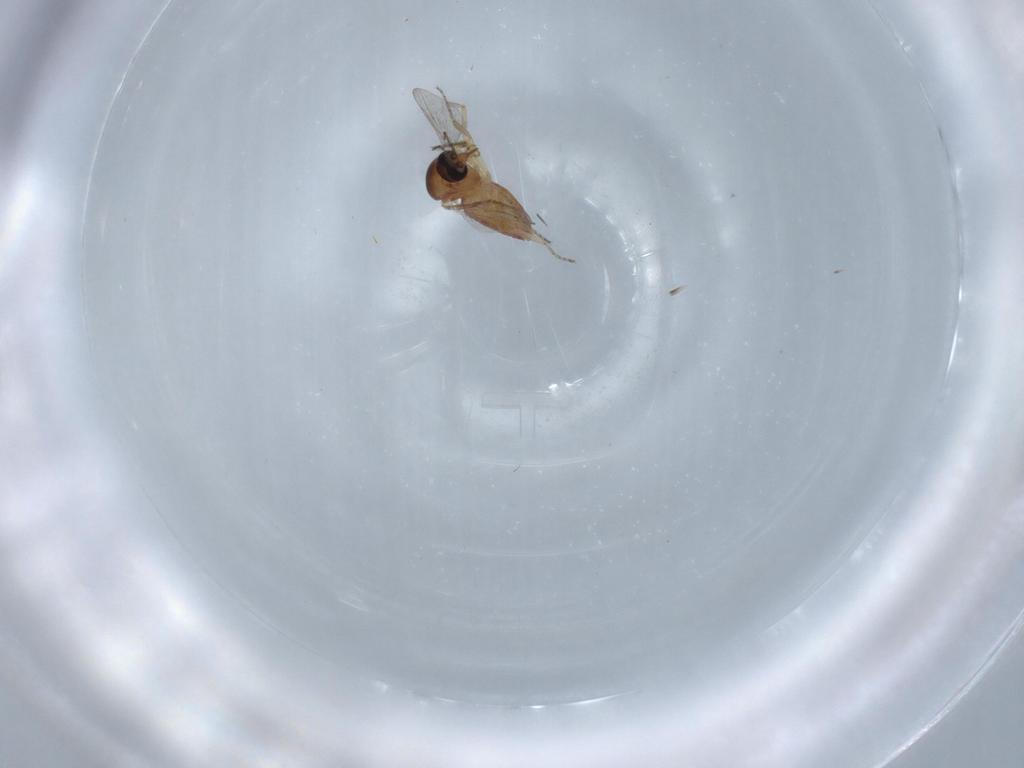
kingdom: Animalia
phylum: Arthropoda
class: Insecta
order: Diptera
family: Ceratopogonidae
